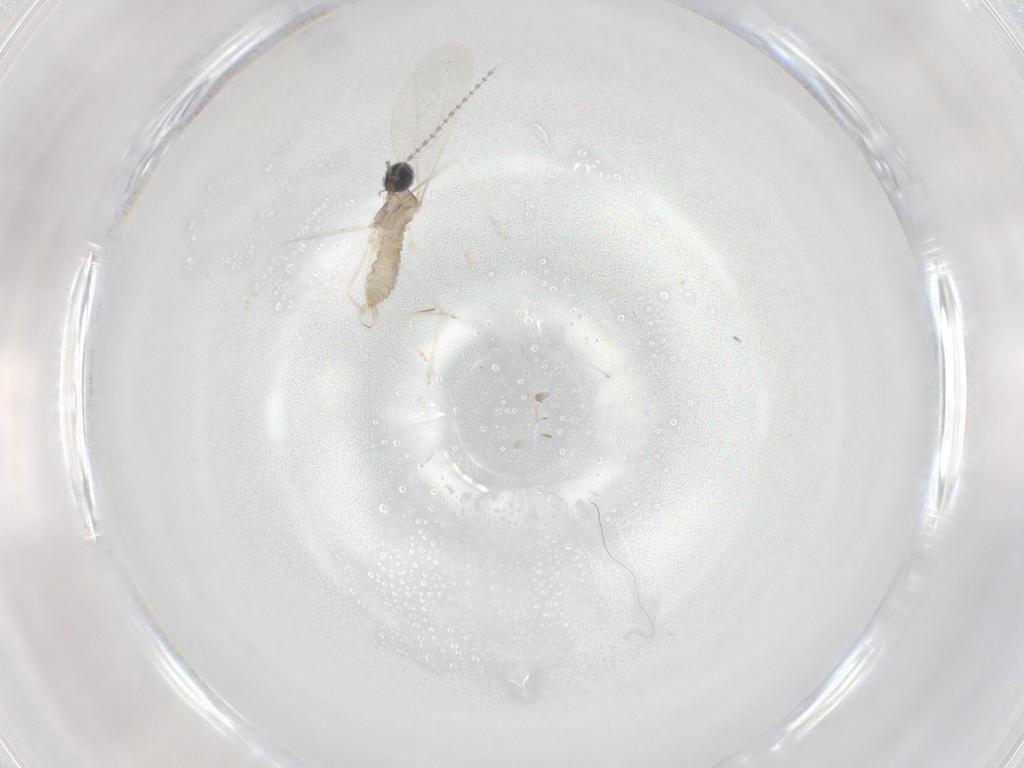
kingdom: Animalia
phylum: Arthropoda
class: Insecta
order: Diptera
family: Cecidomyiidae
